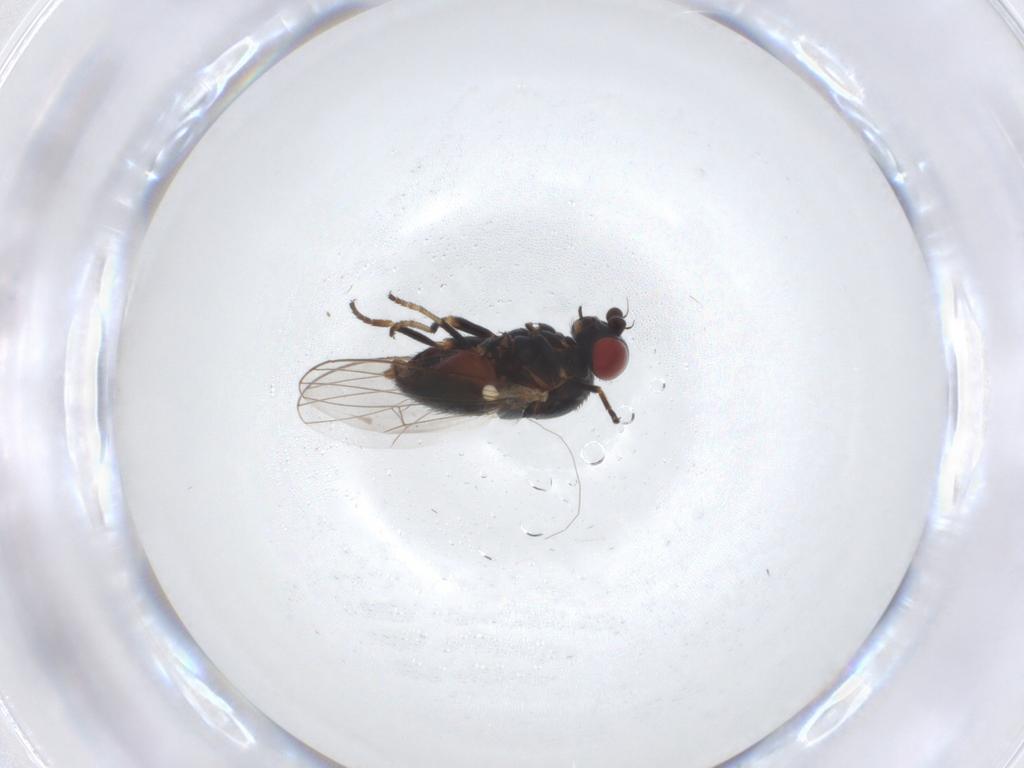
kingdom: Animalia
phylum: Arthropoda
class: Insecta
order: Diptera
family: Chamaemyiidae
